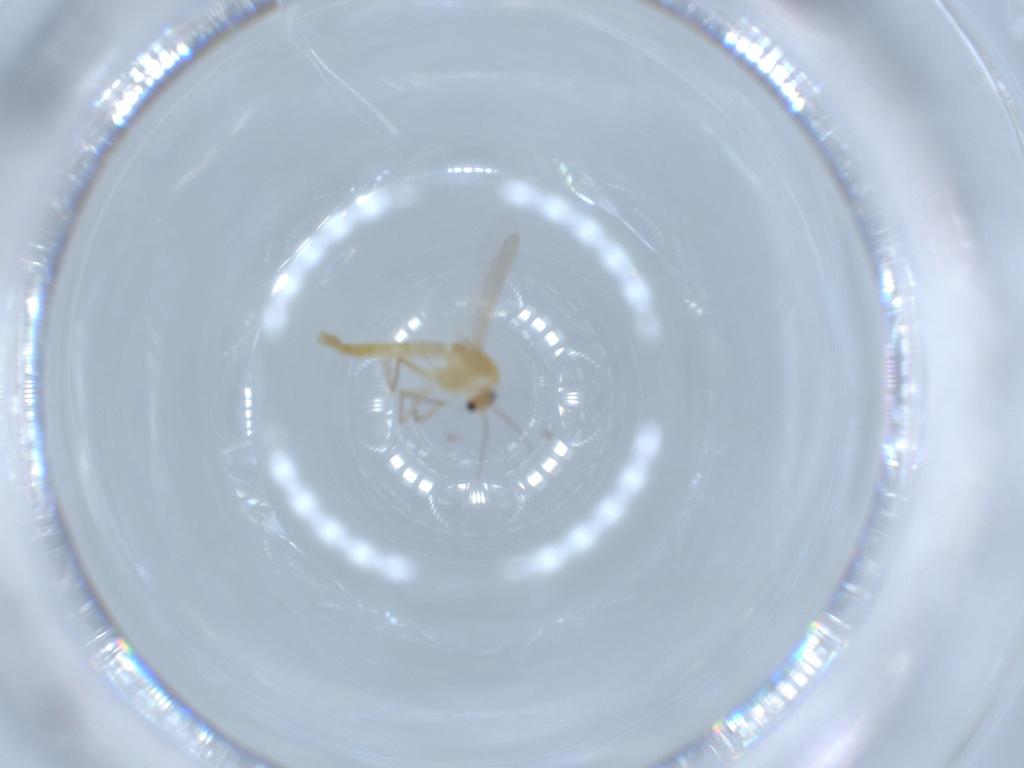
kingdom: Animalia
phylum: Arthropoda
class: Insecta
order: Diptera
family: Chironomidae
